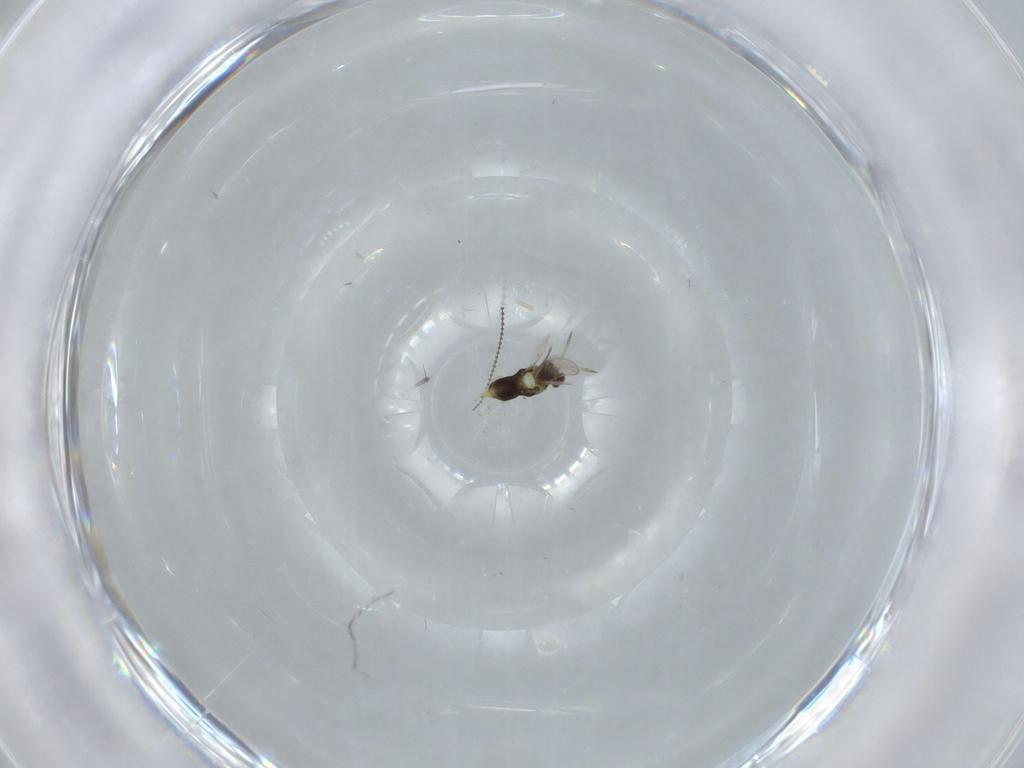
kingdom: Animalia
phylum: Arthropoda
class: Insecta
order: Hymenoptera
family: Aphelinidae
